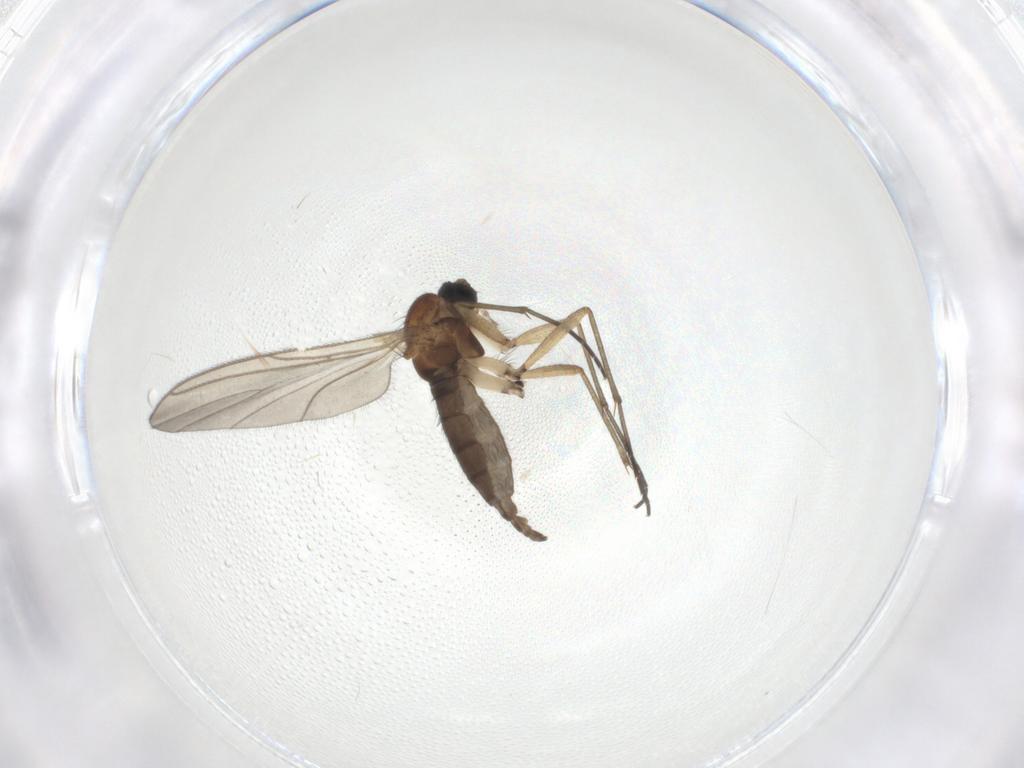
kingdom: Animalia
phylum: Arthropoda
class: Insecta
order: Diptera
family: Sciaridae
